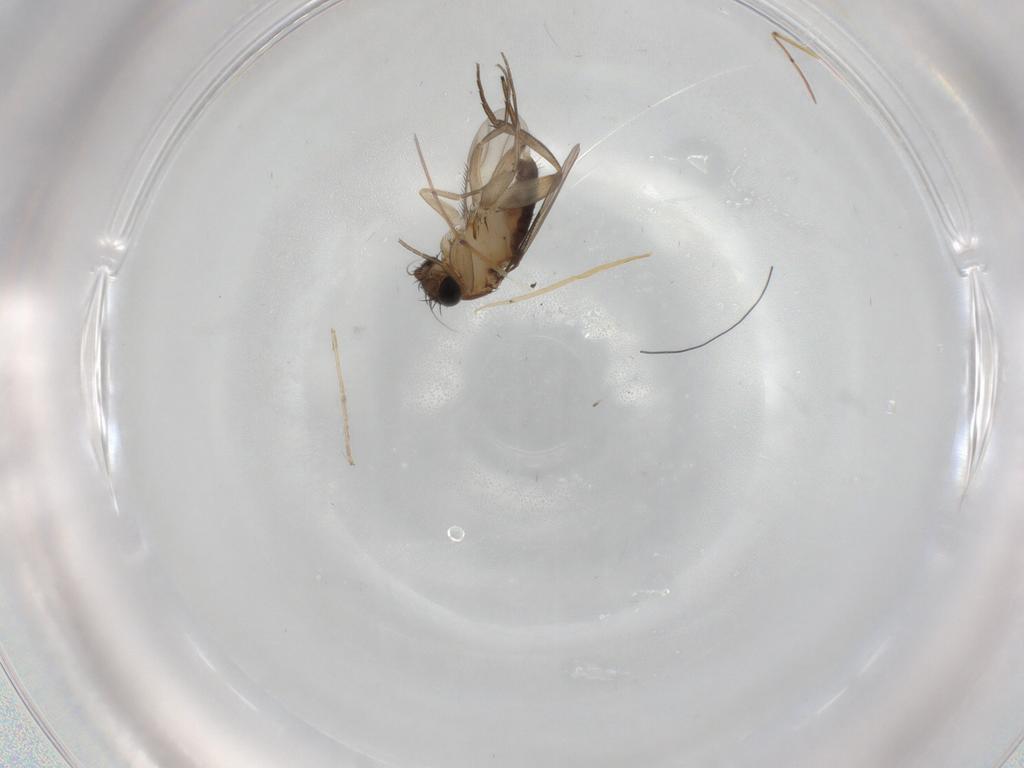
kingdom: Animalia
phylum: Arthropoda
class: Insecta
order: Diptera
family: Phoridae
